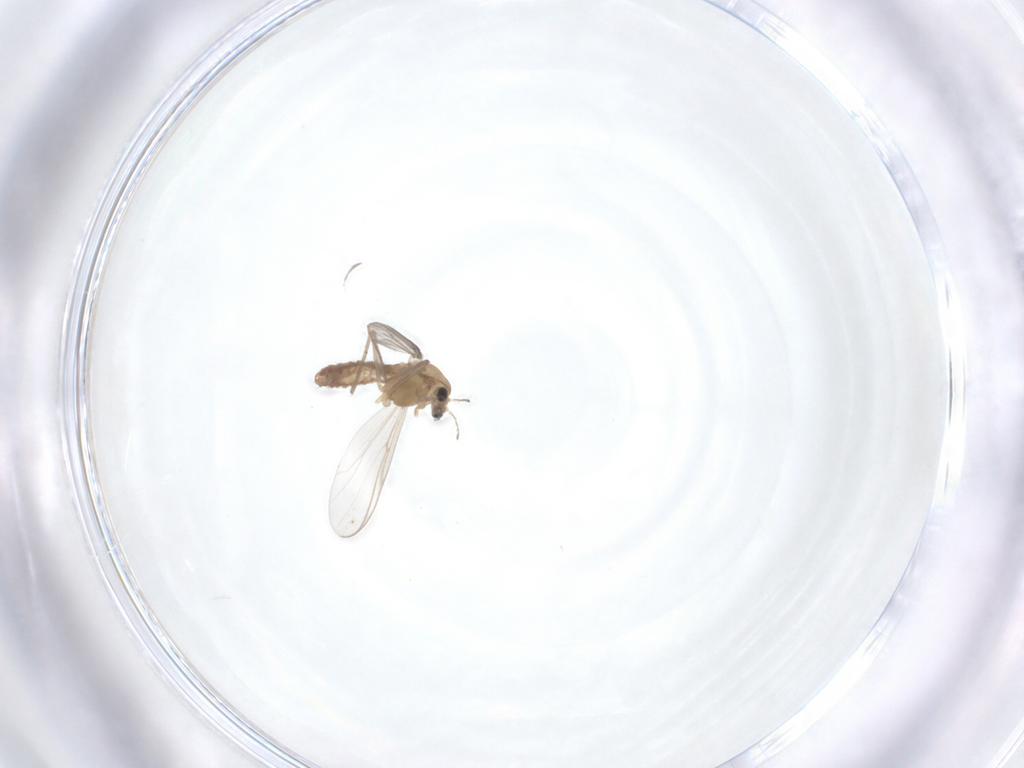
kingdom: Animalia
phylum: Arthropoda
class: Insecta
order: Diptera
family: Chironomidae
